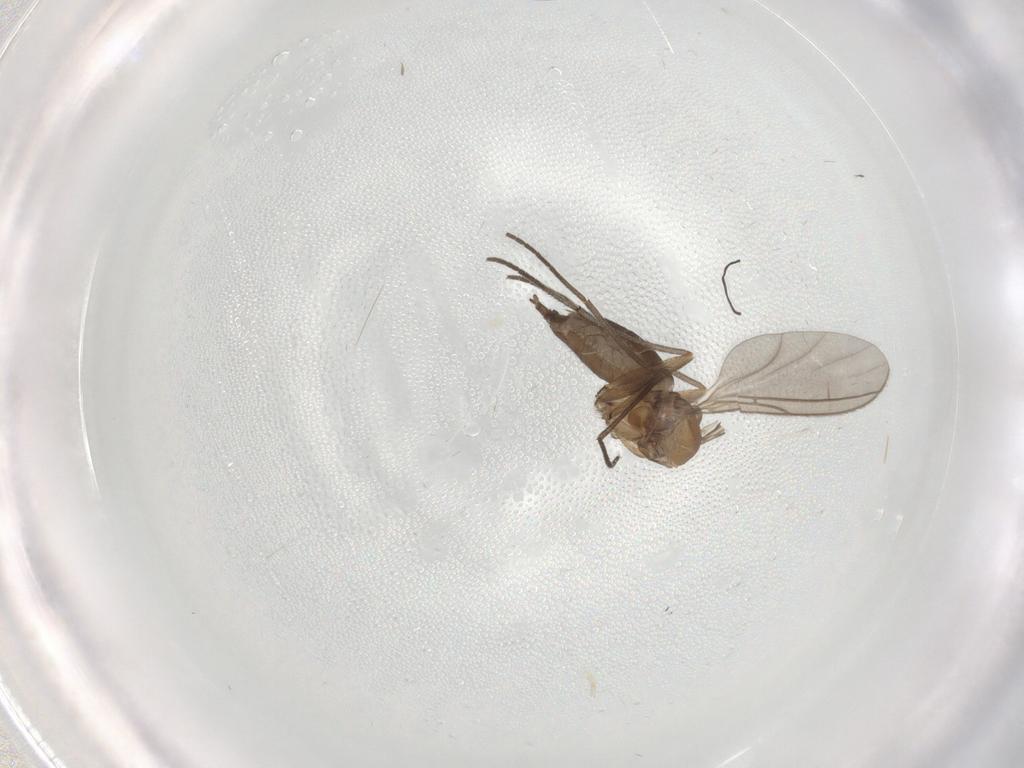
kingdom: Animalia
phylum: Arthropoda
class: Insecta
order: Diptera
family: Sciaridae
